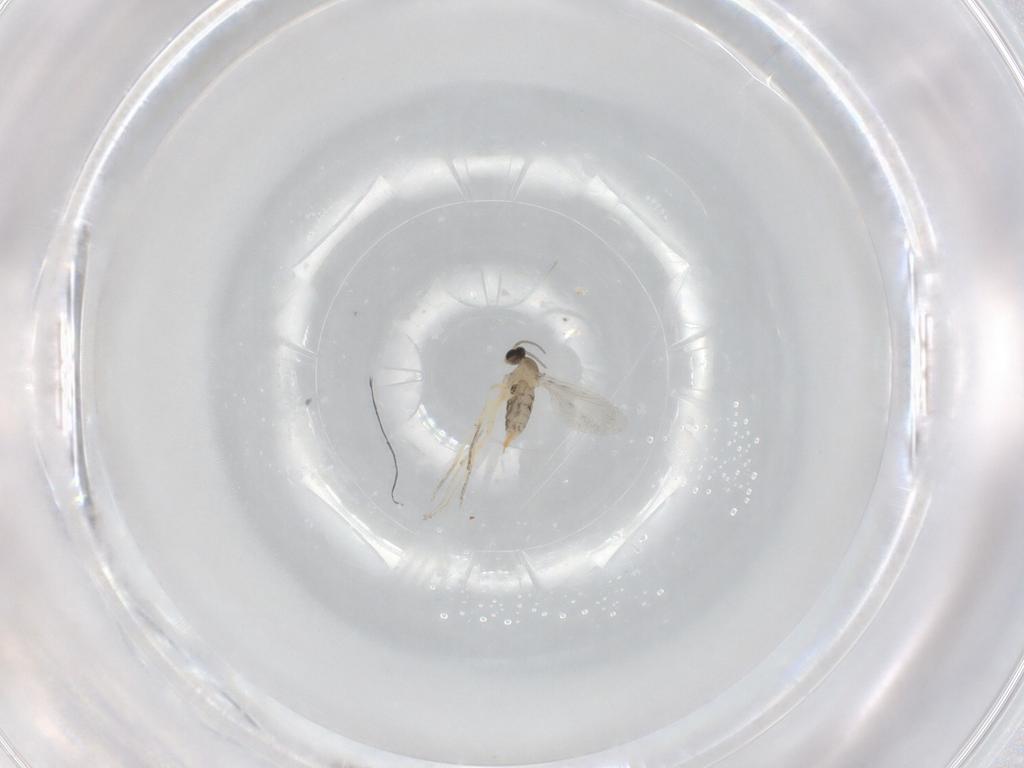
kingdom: Animalia
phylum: Arthropoda
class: Insecta
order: Diptera
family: Cecidomyiidae
